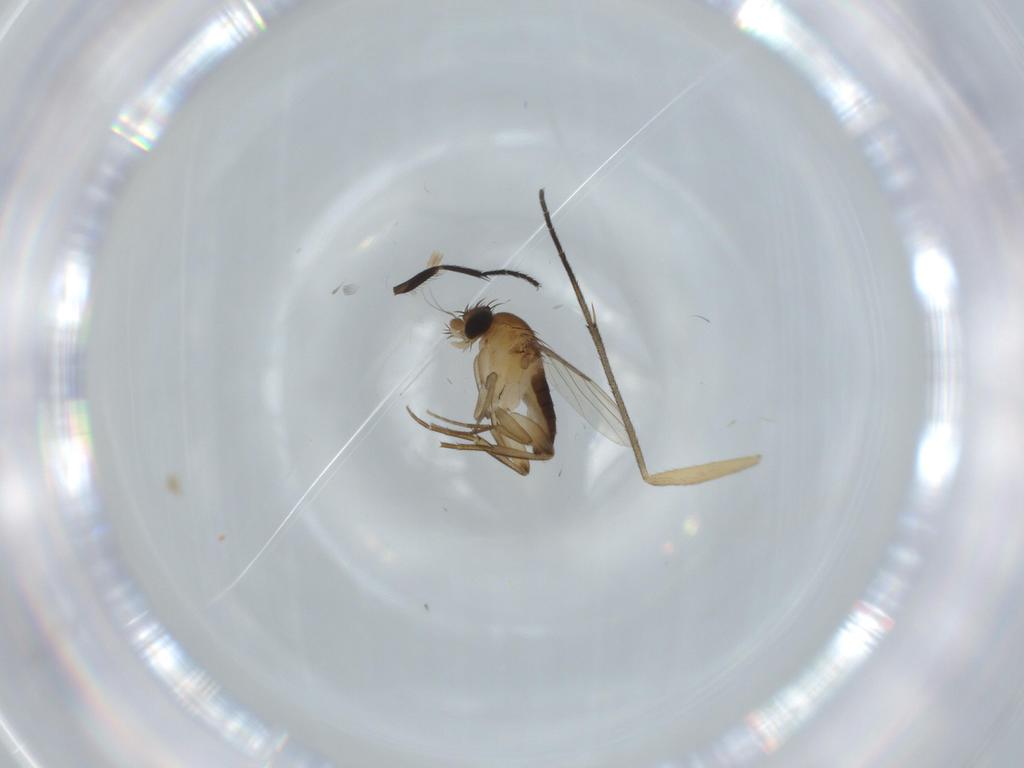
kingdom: Animalia
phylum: Arthropoda
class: Insecta
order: Diptera
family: Phoridae
